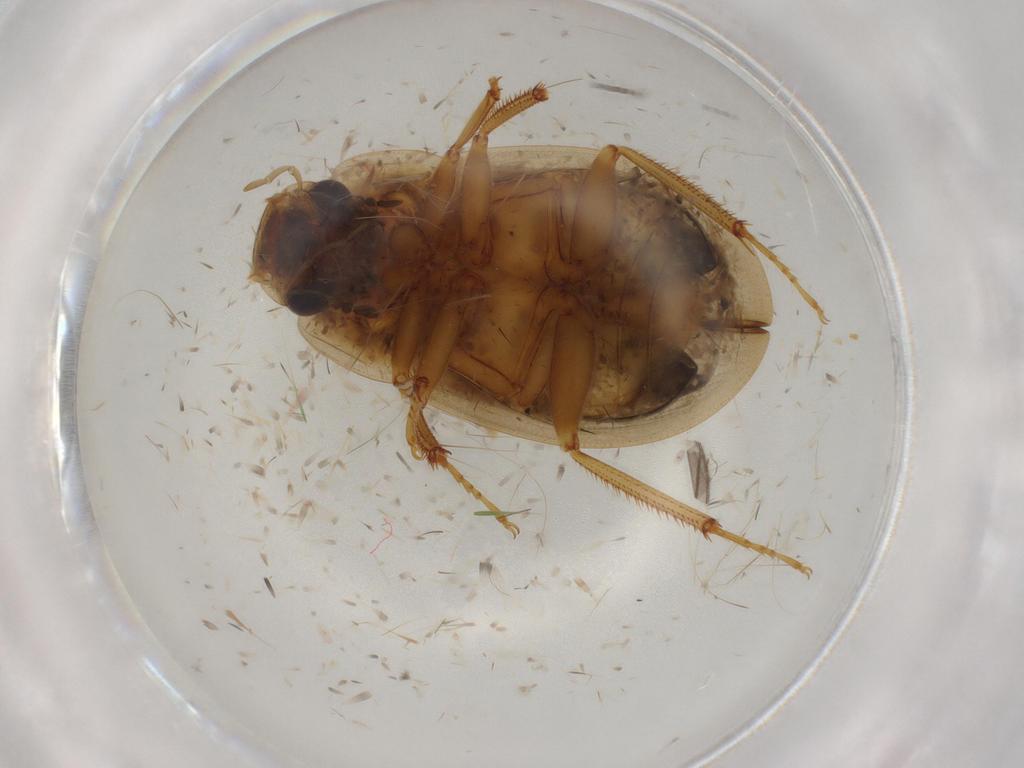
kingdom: Animalia
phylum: Arthropoda
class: Insecta
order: Coleoptera
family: Hydrophilidae
